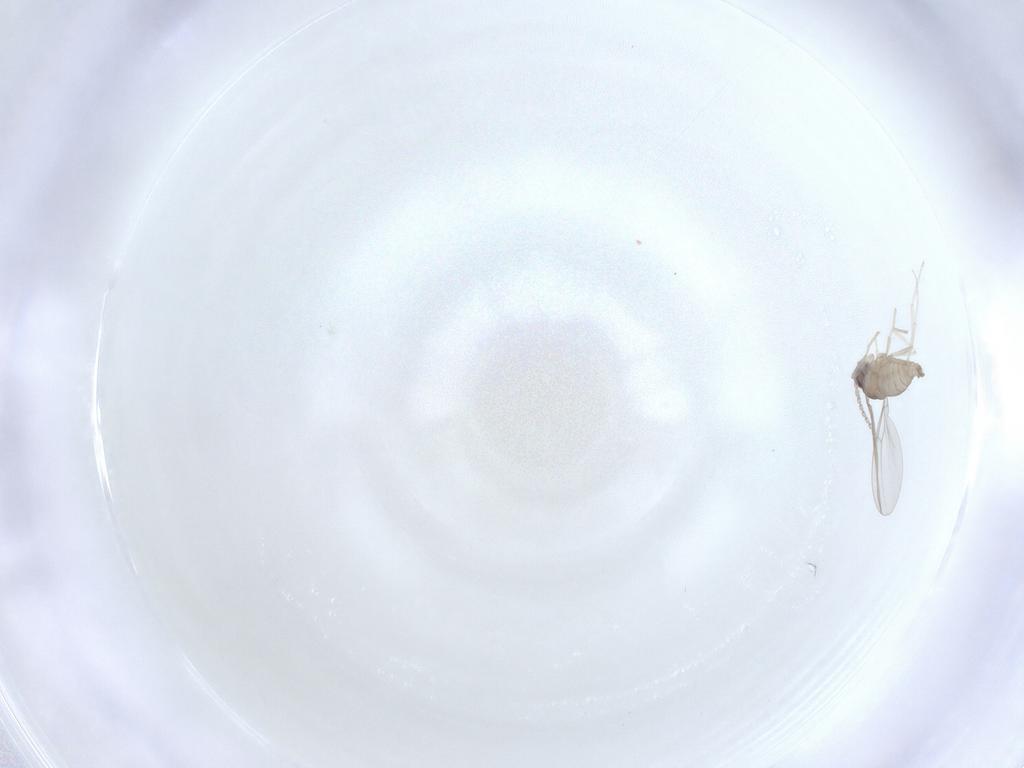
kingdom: Animalia
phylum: Arthropoda
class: Insecta
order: Diptera
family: Cecidomyiidae
